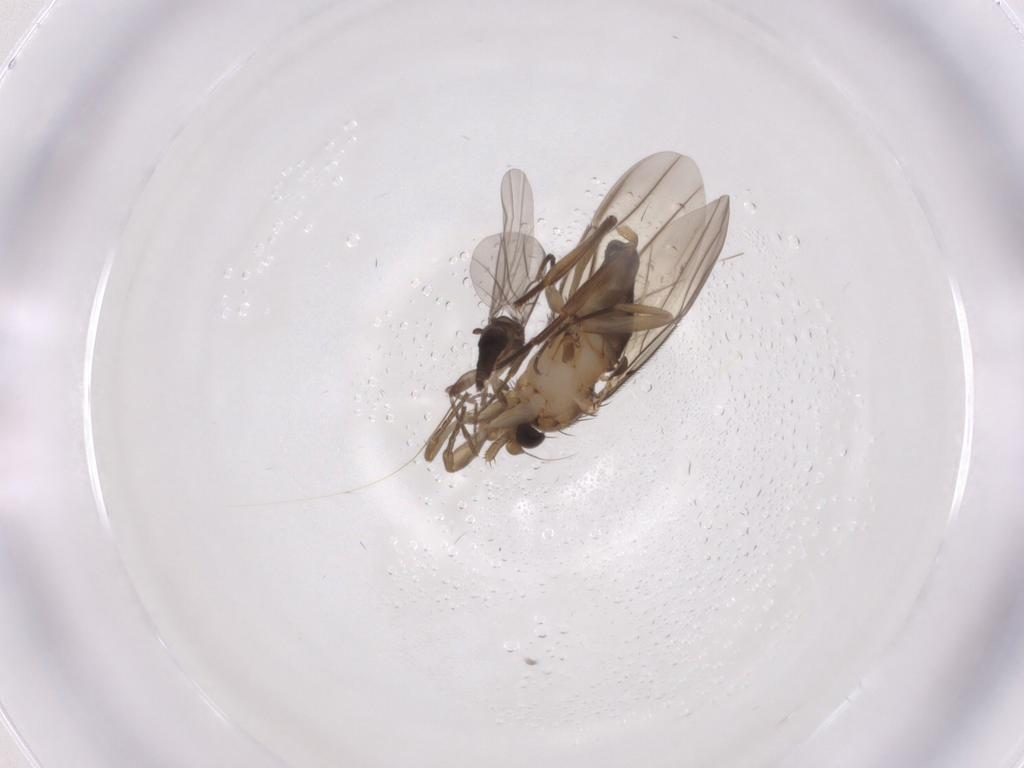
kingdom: Animalia
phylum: Arthropoda
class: Insecta
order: Diptera
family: Phoridae
